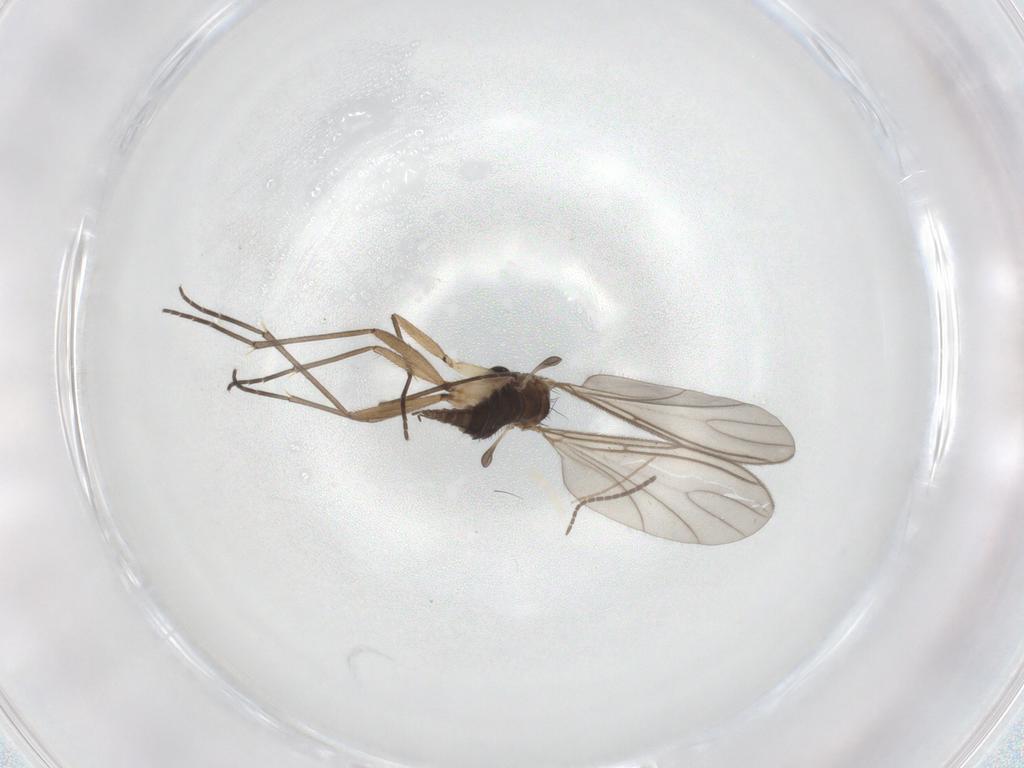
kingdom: Animalia
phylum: Arthropoda
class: Insecta
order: Diptera
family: Sciaridae
